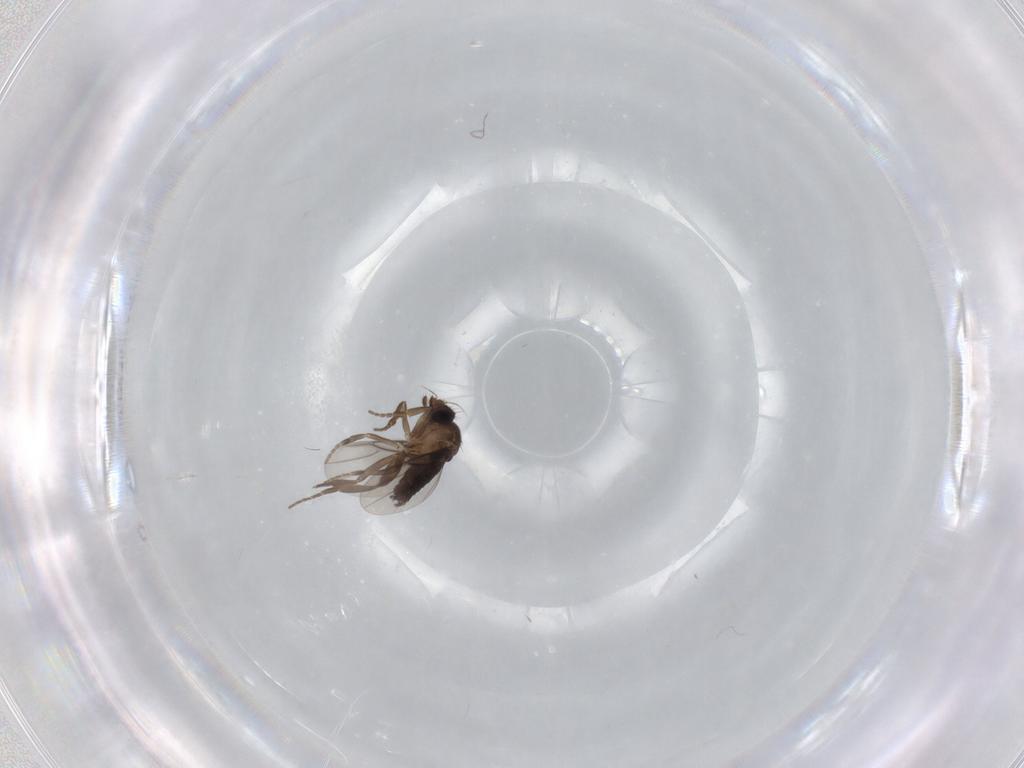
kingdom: Animalia
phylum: Arthropoda
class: Insecta
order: Diptera
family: Phoridae
